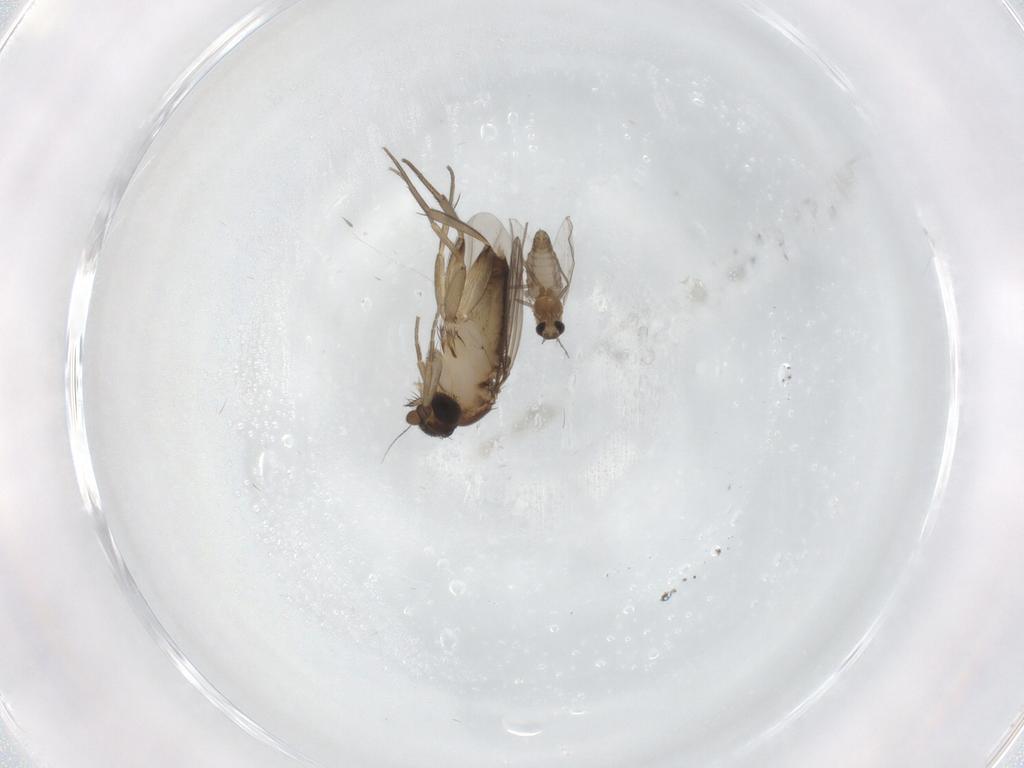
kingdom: Animalia
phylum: Arthropoda
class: Insecta
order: Diptera
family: Phoridae
